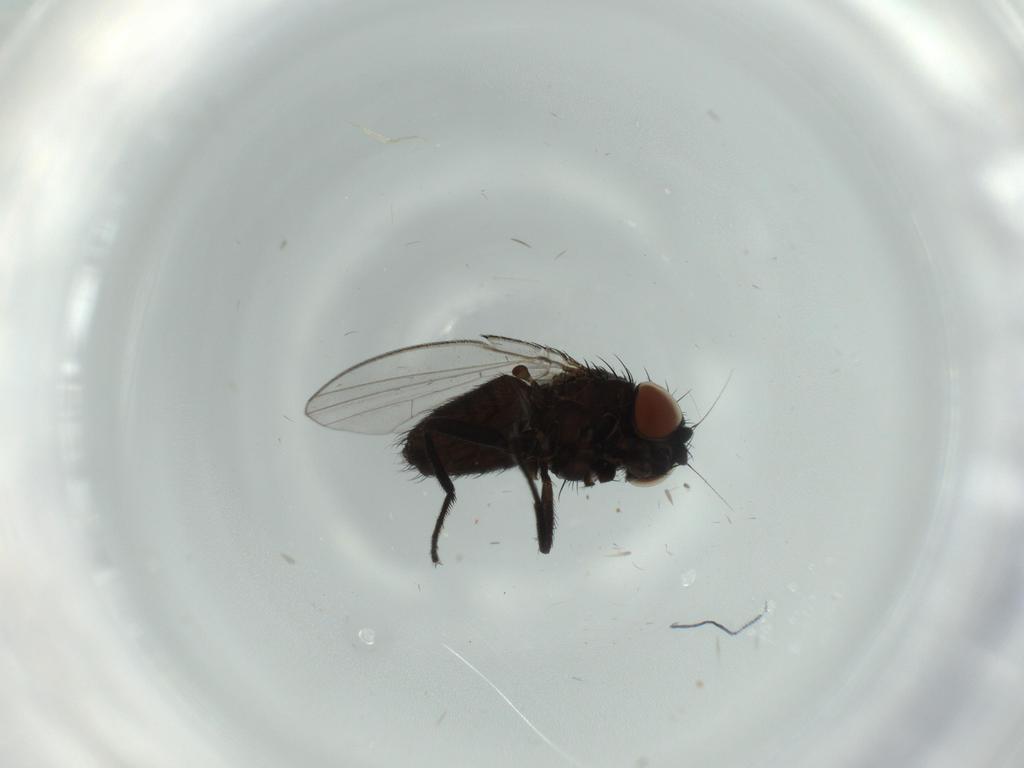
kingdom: Animalia
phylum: Arthropoda
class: Insecta
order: Diptera
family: Milichiidae
